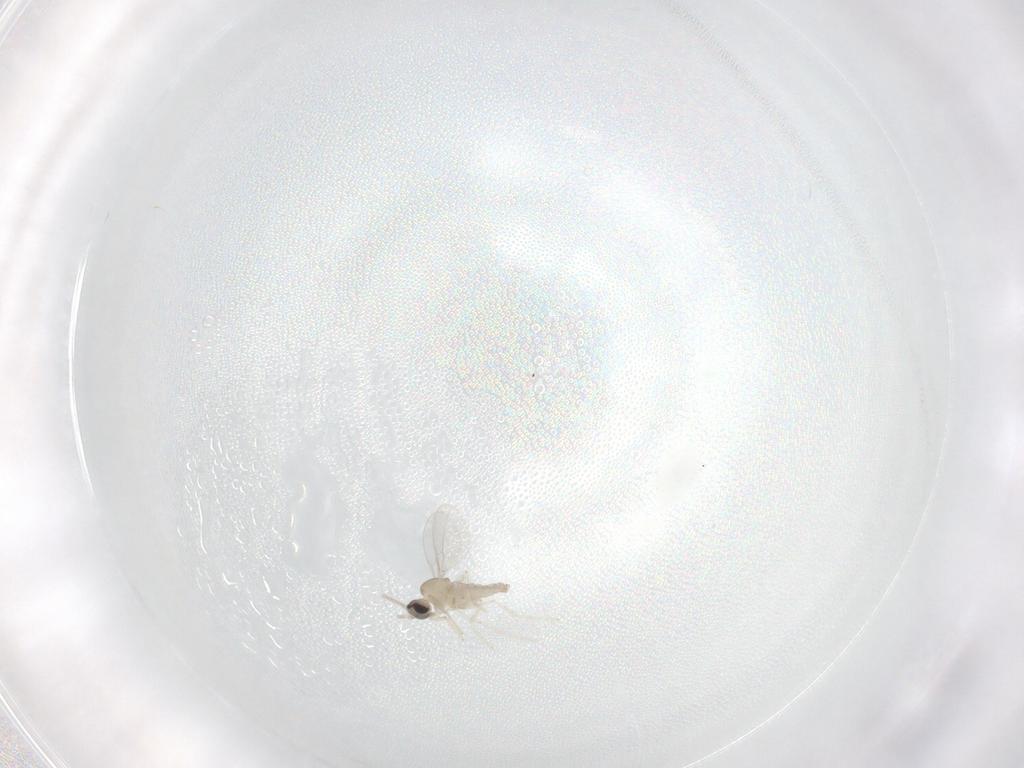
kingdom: Animalia
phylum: Arthropoda
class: Insecta
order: Diptera
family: Cecidomyiidae
